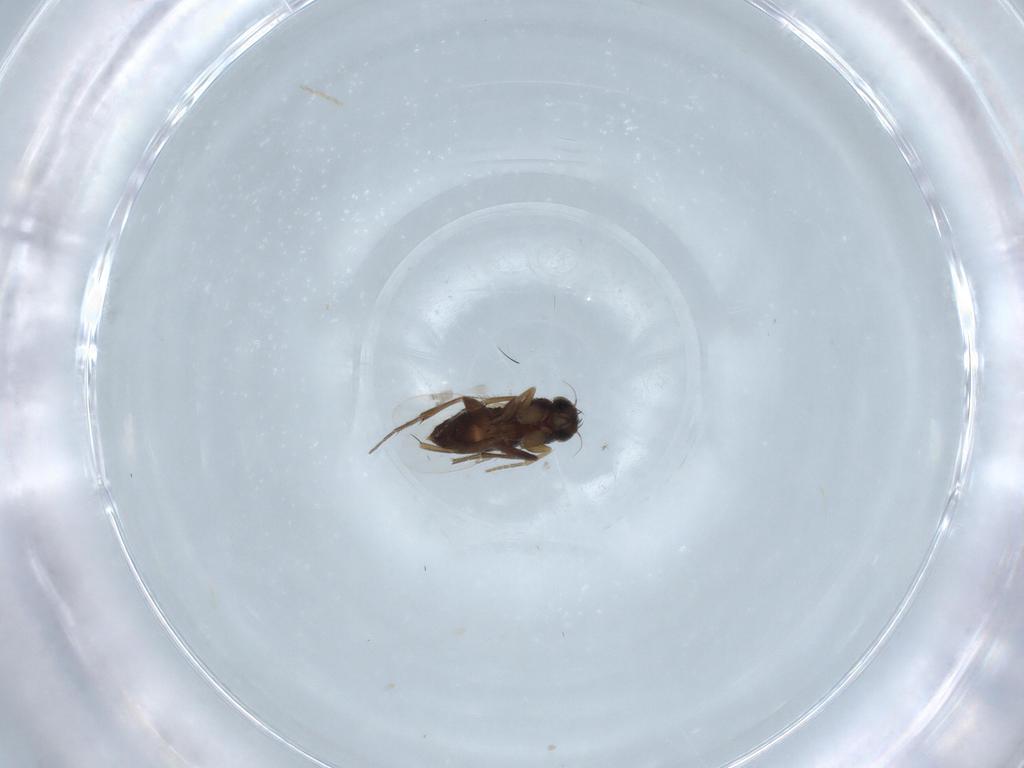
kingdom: Animalia
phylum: Arthropoda
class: Insecta
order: Diptera
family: Phoridae
